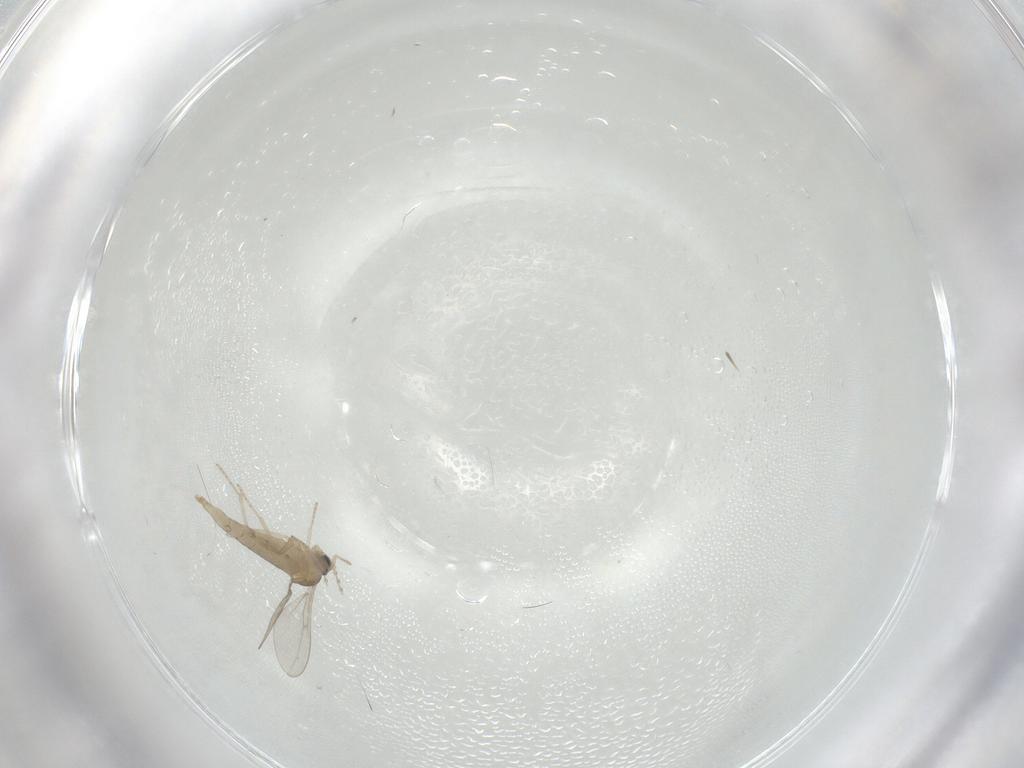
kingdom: Animalia
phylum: Arthropoda
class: Insecta
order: Diptera
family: Cecidomyiidae
